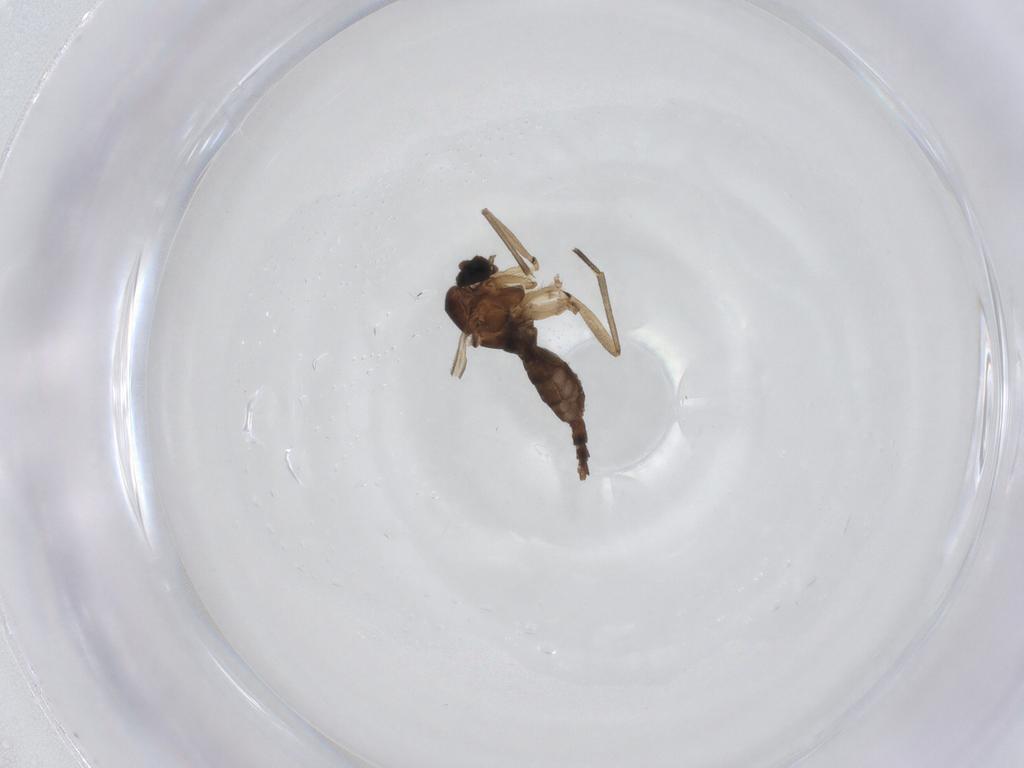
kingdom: Animalia
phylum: Arthropoda
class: Insecta
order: Diptera
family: Sciaridae
